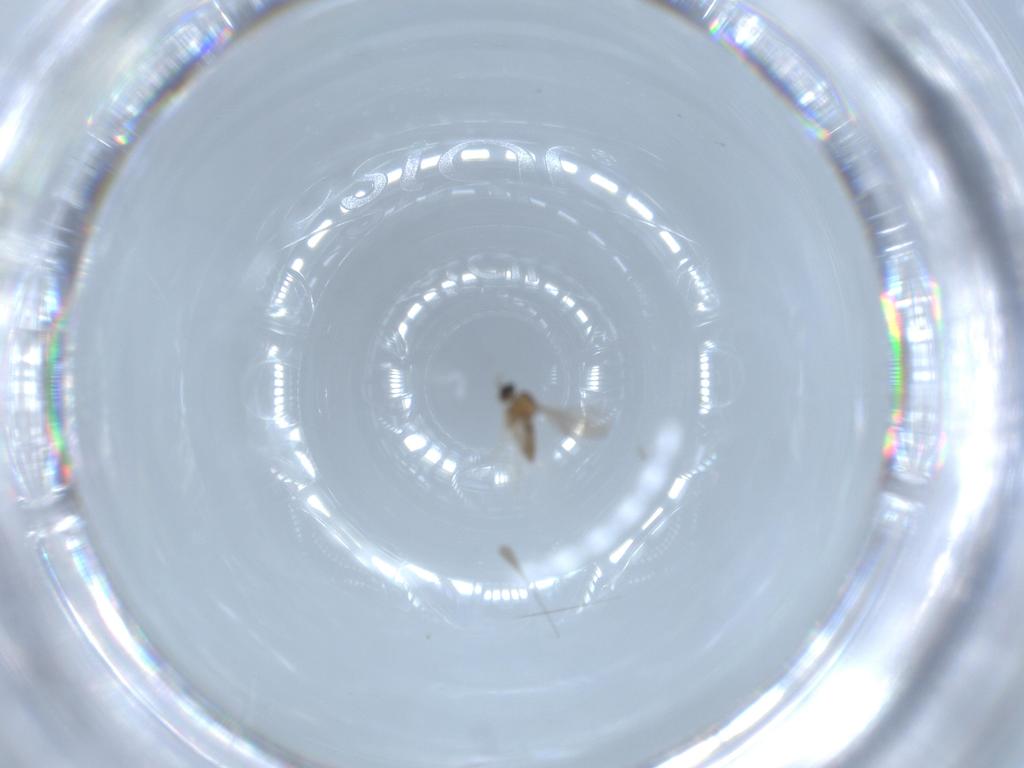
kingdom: Animalia
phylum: Arthropoda
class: Insecta
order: Diptera
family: Cecidomyiidae
